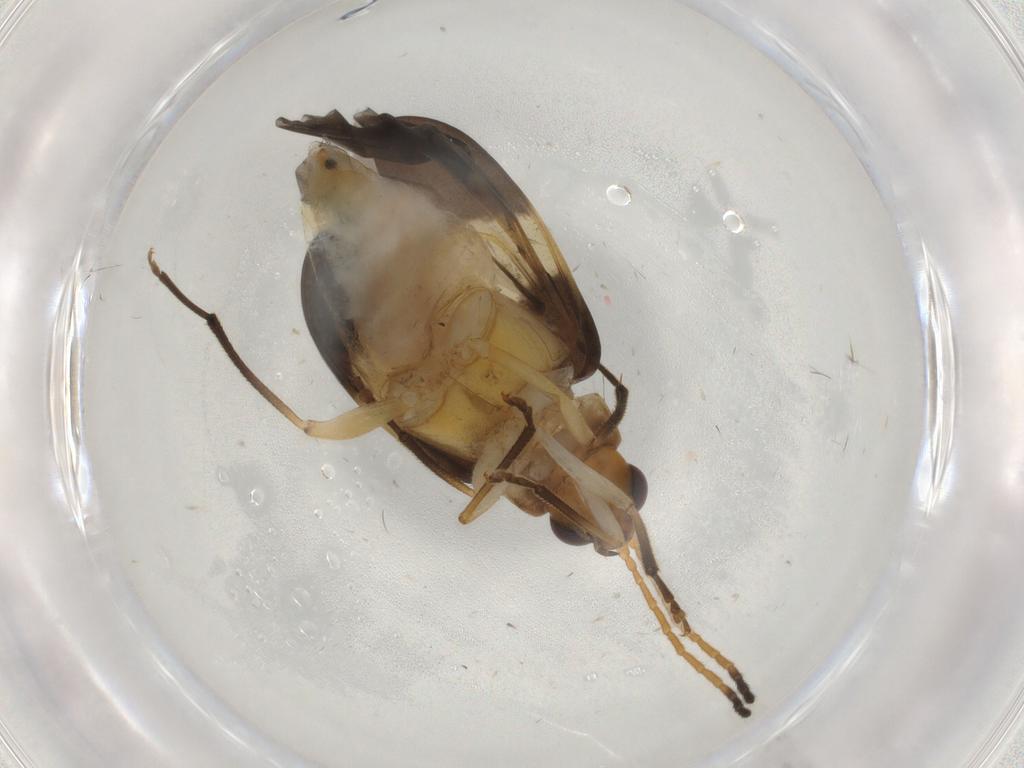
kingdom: Animalia
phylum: Arthropoda
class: Insecta
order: Coleoptera
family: Chrysomelidae
